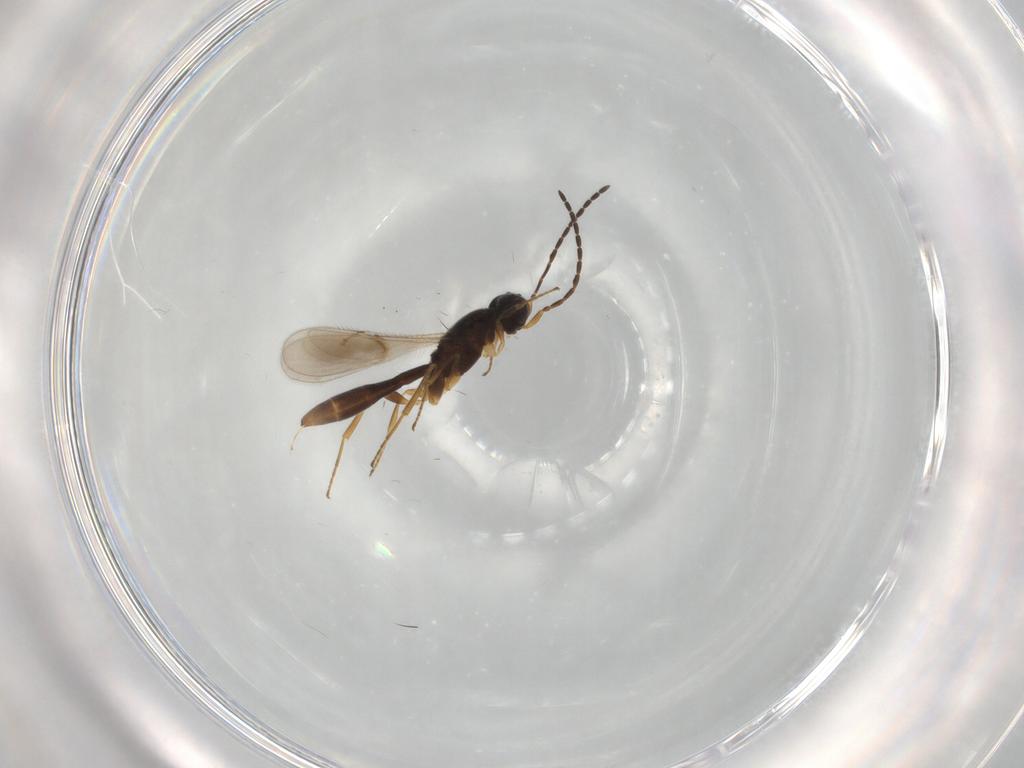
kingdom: Animalia
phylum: Arthropoda
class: Insecta
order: Hymenoptera
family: Scelionidae
